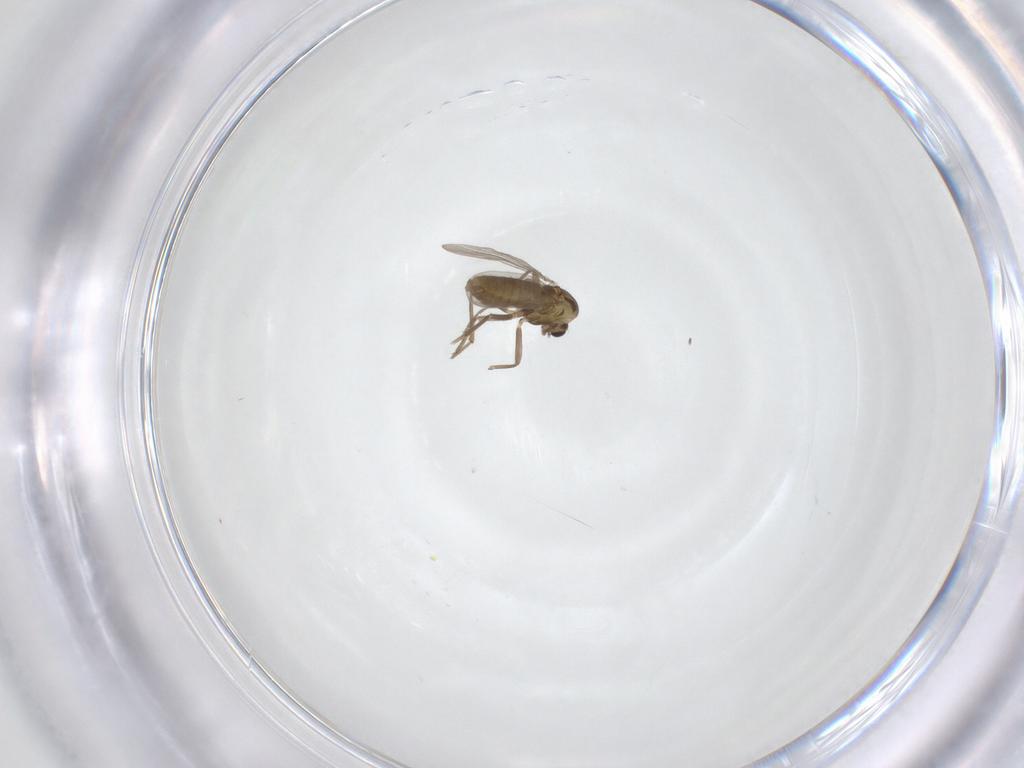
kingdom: Animalia
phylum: Arthropoda
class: Insecta
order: Diptera
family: Chironomidae
